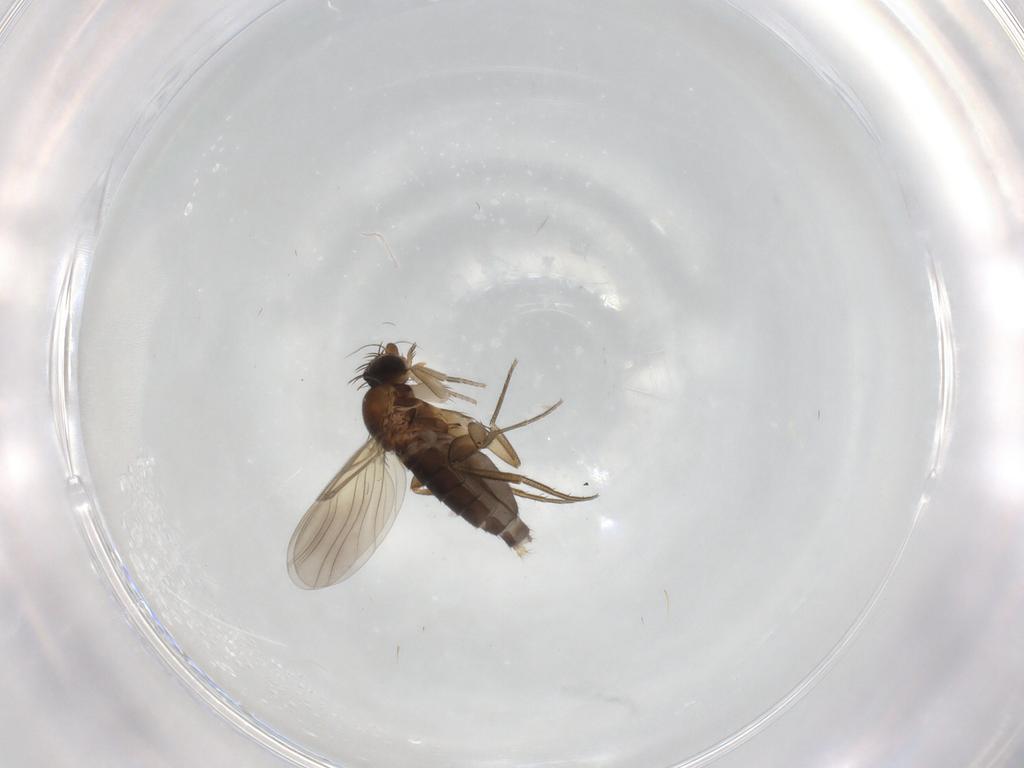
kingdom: Animalia
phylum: Arthropoda
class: Insecta
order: Diptera
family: Phoridae
